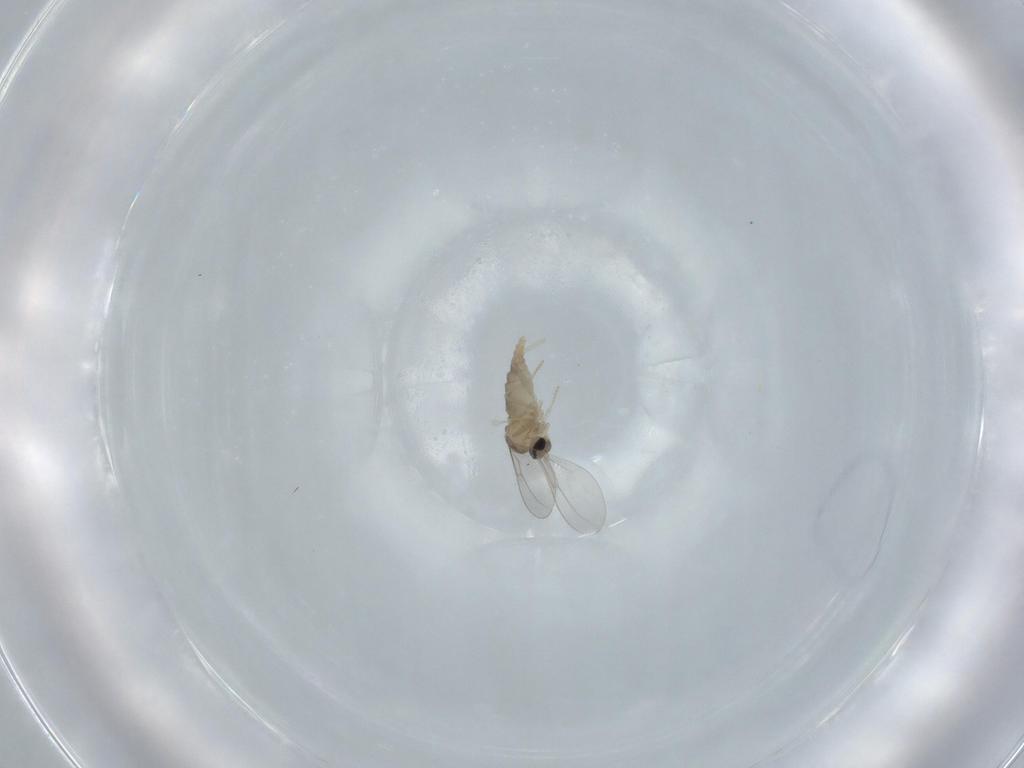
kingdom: Animalia
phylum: Arthropoda
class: Insecta
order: Diptera
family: Cecidomyiidae
